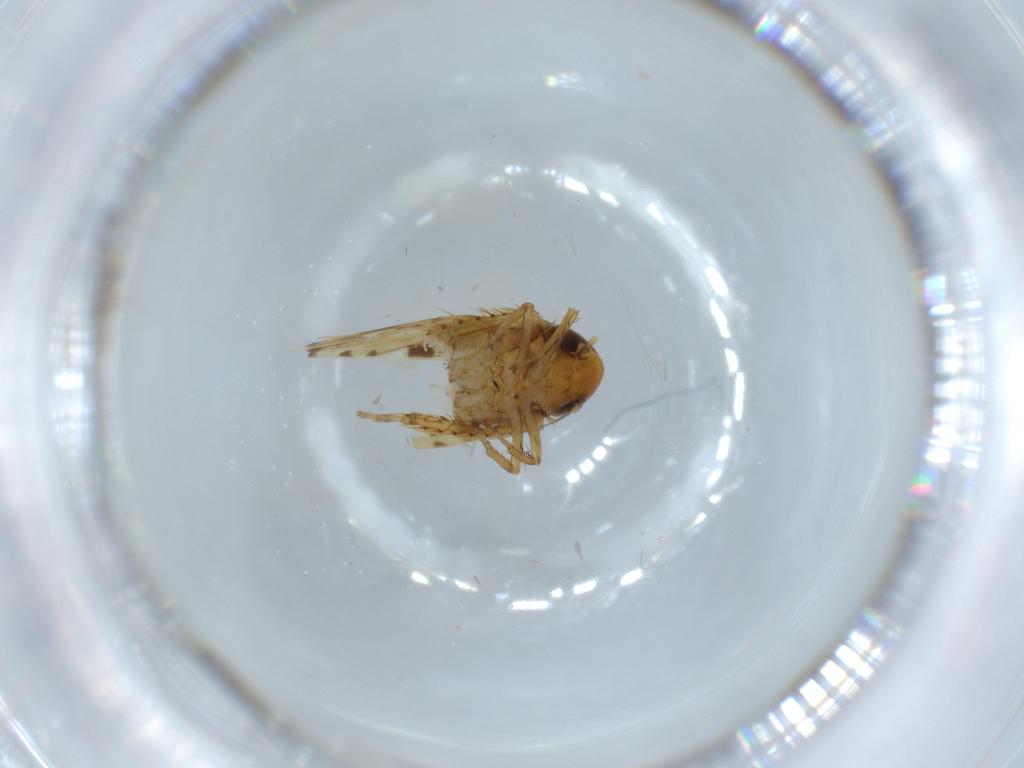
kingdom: Animalia
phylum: Arthropoda
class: Insecta
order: Hemiptera
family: Cicadellidae
